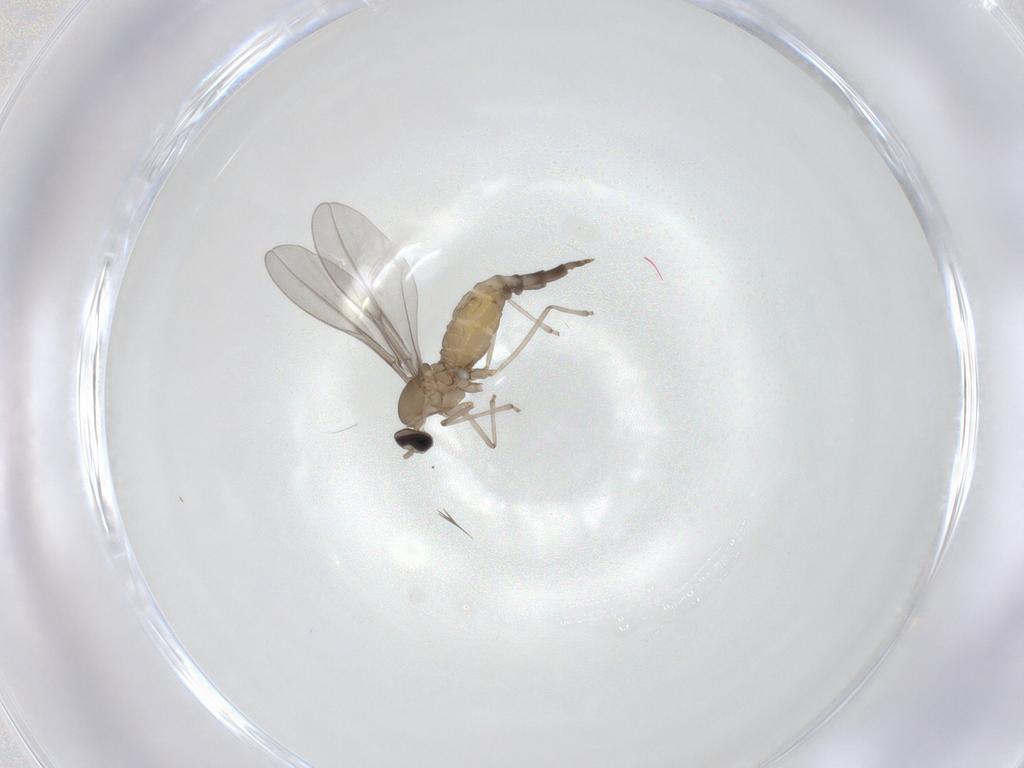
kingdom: Animalia
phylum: Arthropoda
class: Insecta
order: Diptera
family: Cecidomyiidae
